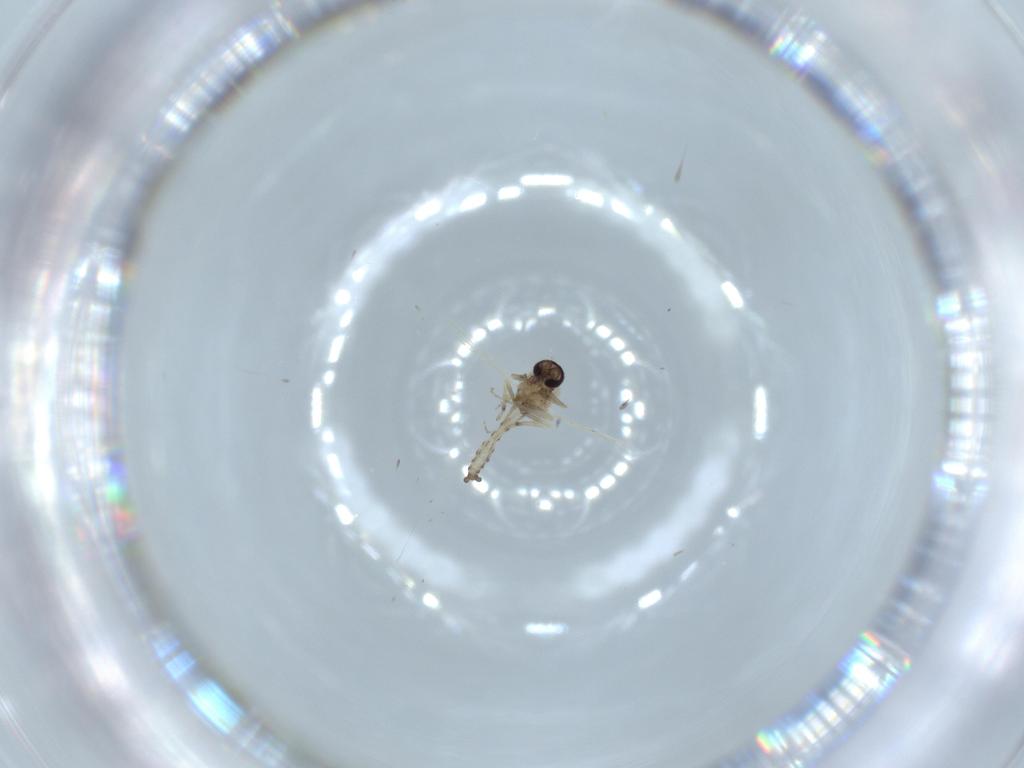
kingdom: Animalia
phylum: Arthropoda
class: Insecta
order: Diptera
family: Ceratopogonidae
